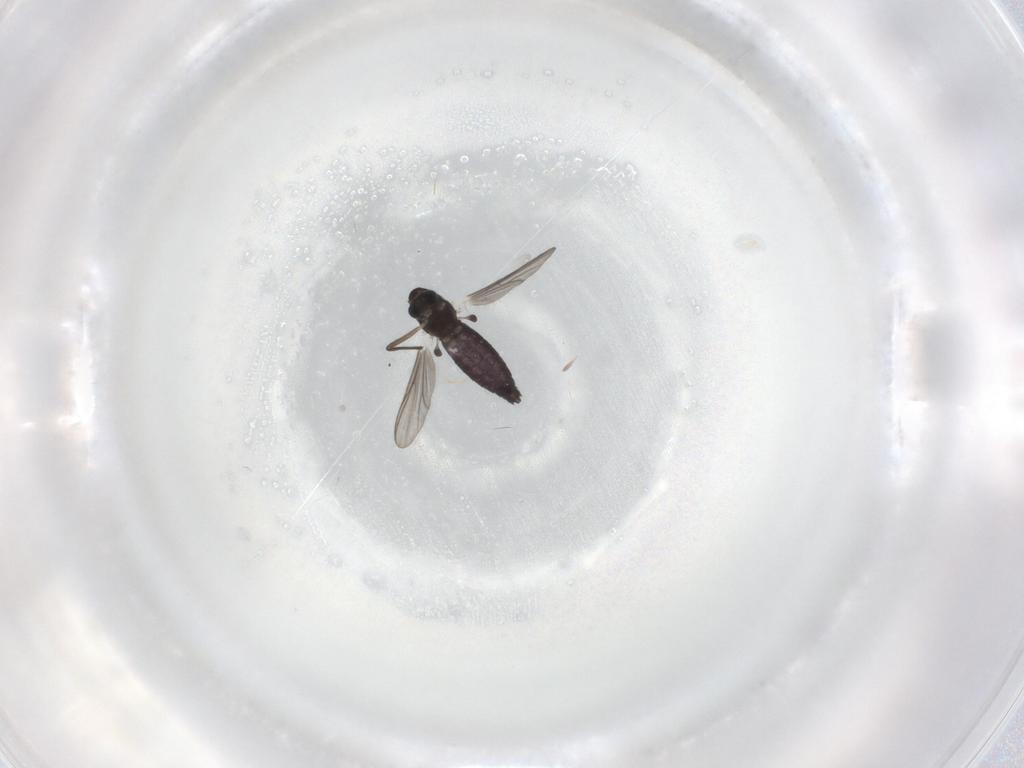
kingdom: Animalia
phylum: Arthropoda
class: Insecta
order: Diptera
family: Chironomidae
